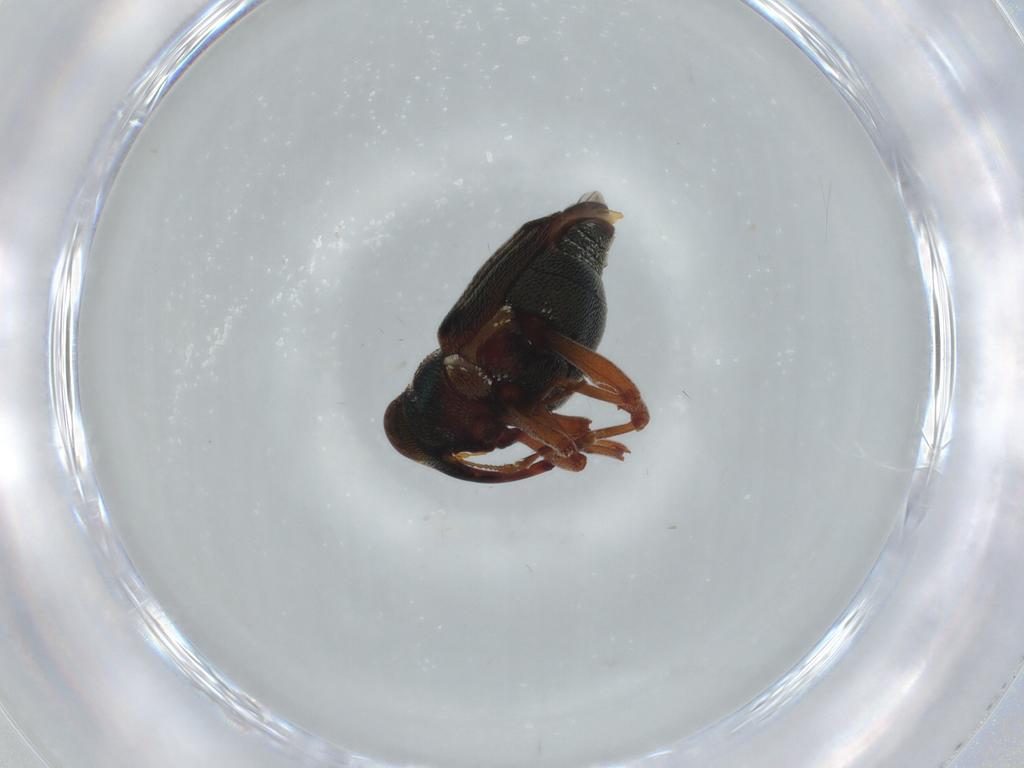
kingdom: Animalia
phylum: Arthropoda
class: Insecta
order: Coleoptera
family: Curculionidae
